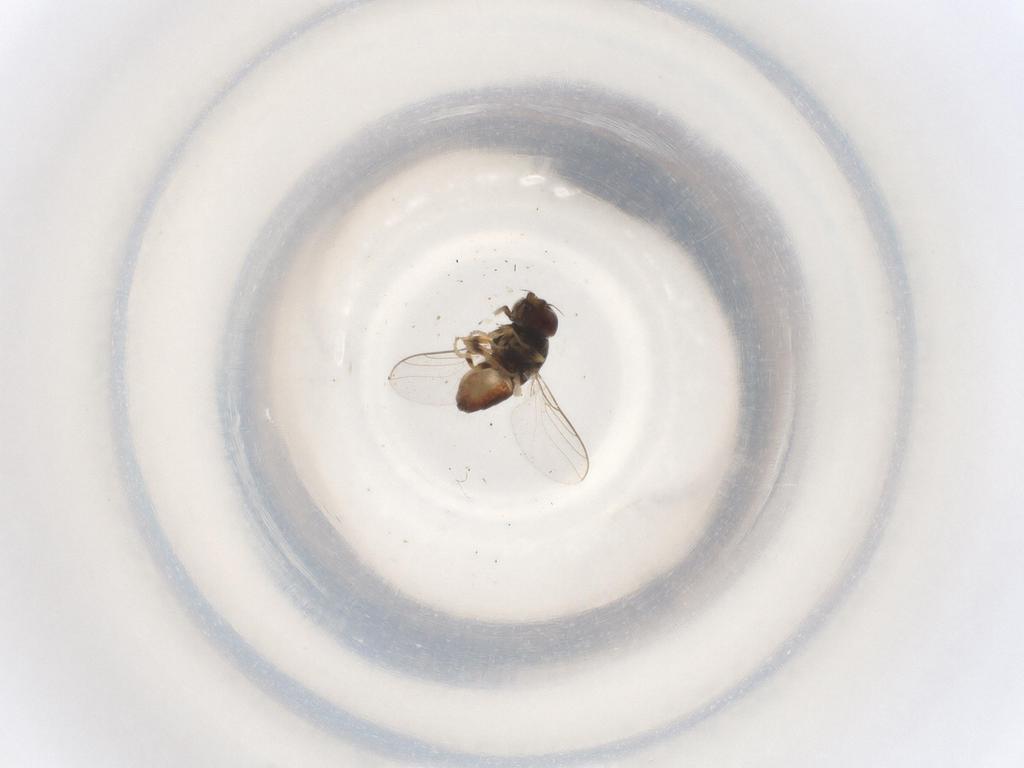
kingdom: Animalia
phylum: Arthropoda
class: Insecta
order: Diptera
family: Chloropidae
